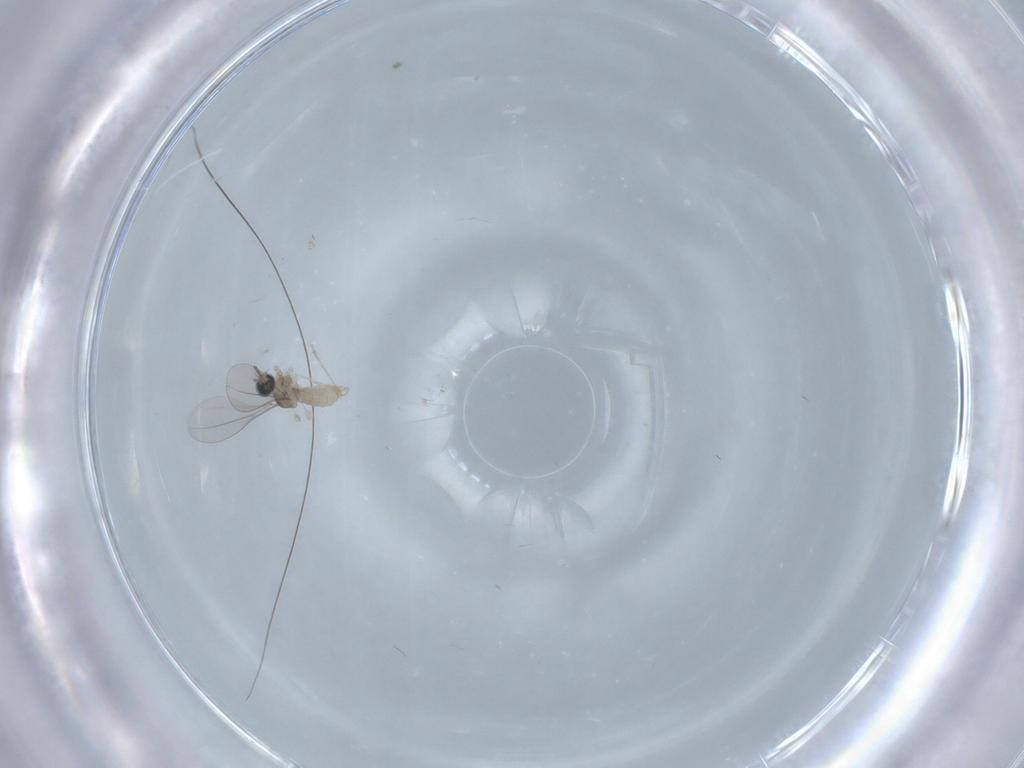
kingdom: Animalia
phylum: Arthropoda
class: Insecta
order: Diptera
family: Cecidomyiidae
